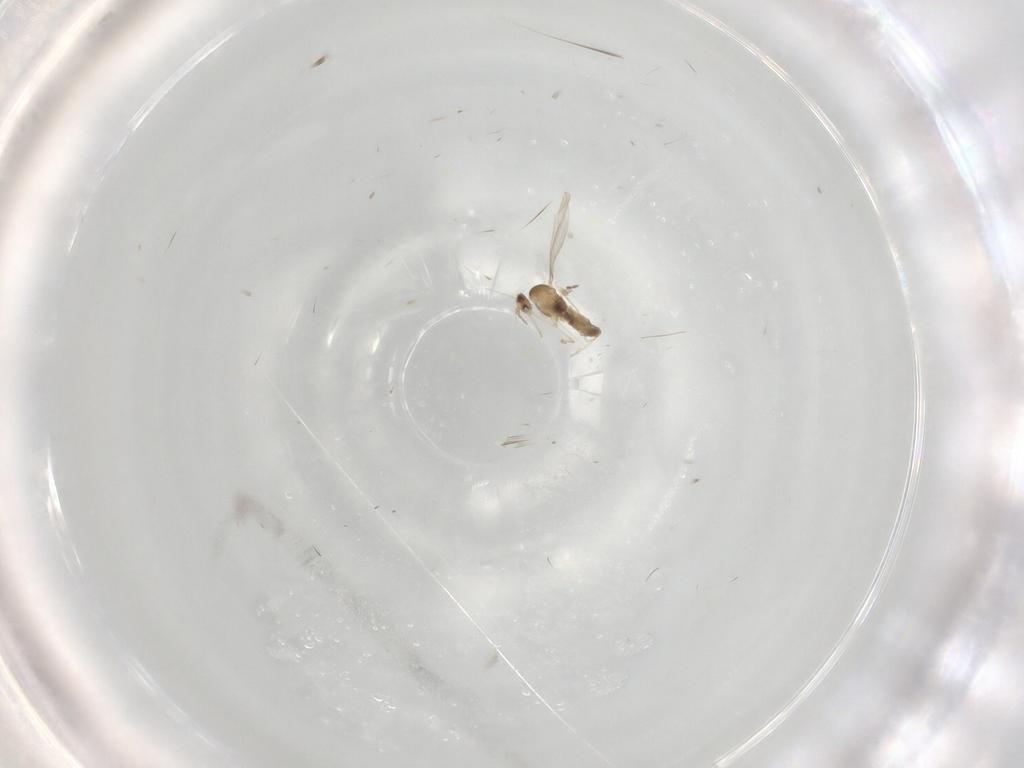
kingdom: Animalia
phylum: Arthropoda
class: Insecta
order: Diptera
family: Cecidomyiidae
